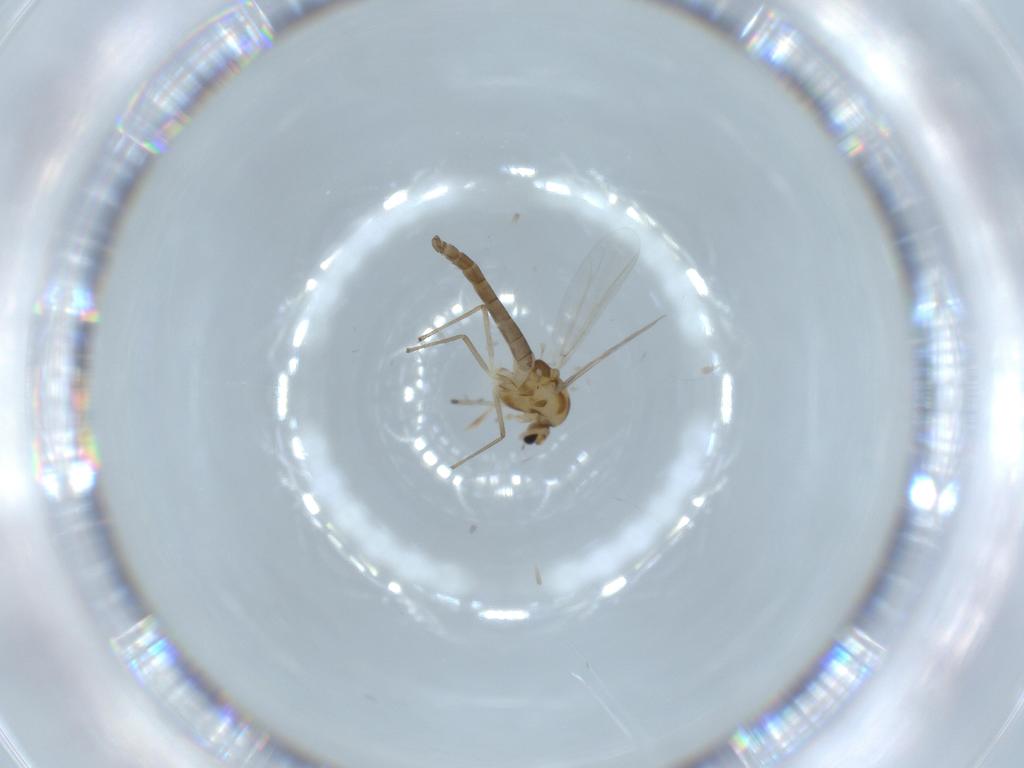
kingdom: Animalia
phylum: Arthropoda
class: Insecta
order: Diptera
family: Chironomidae
